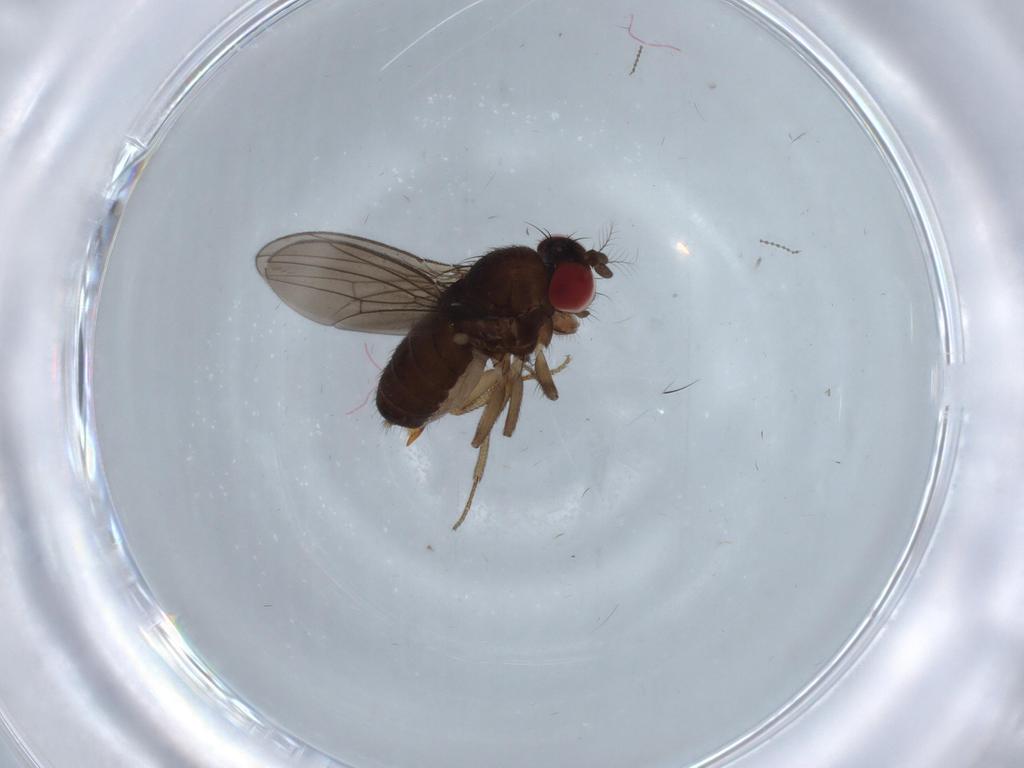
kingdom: Animalia
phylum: Arthropoda
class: Insecta
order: Diptera
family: Drosophilidae
